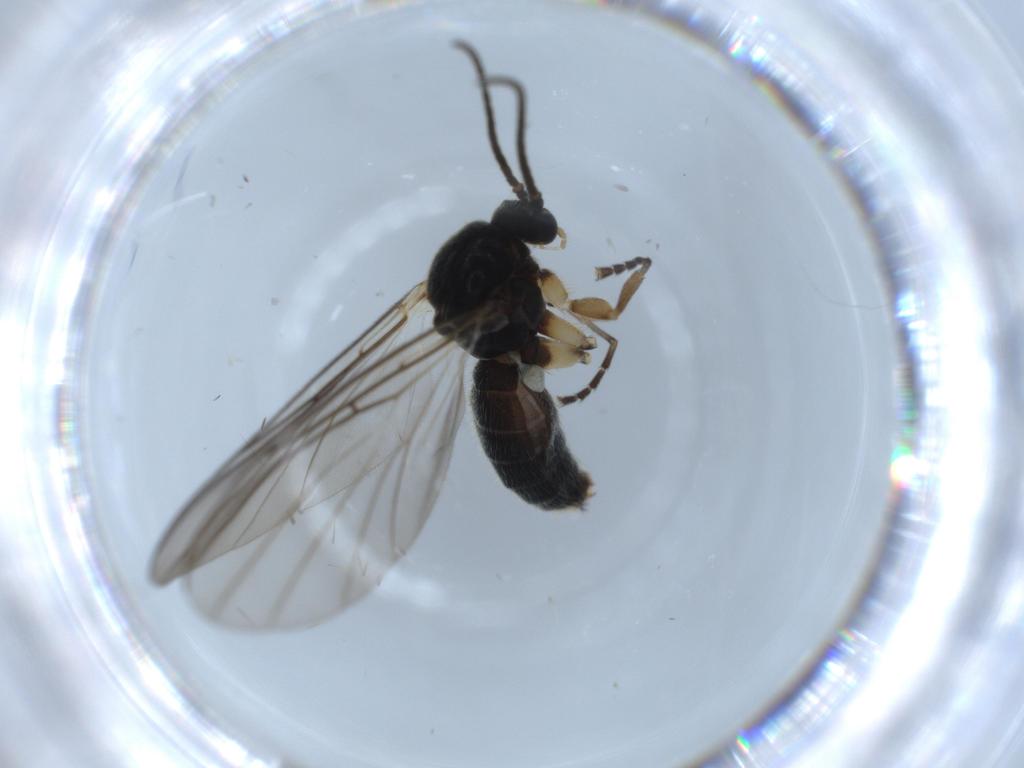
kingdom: Animalia
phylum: Arthropoda
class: Insecta
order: Diptera
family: Mycetophilidae
